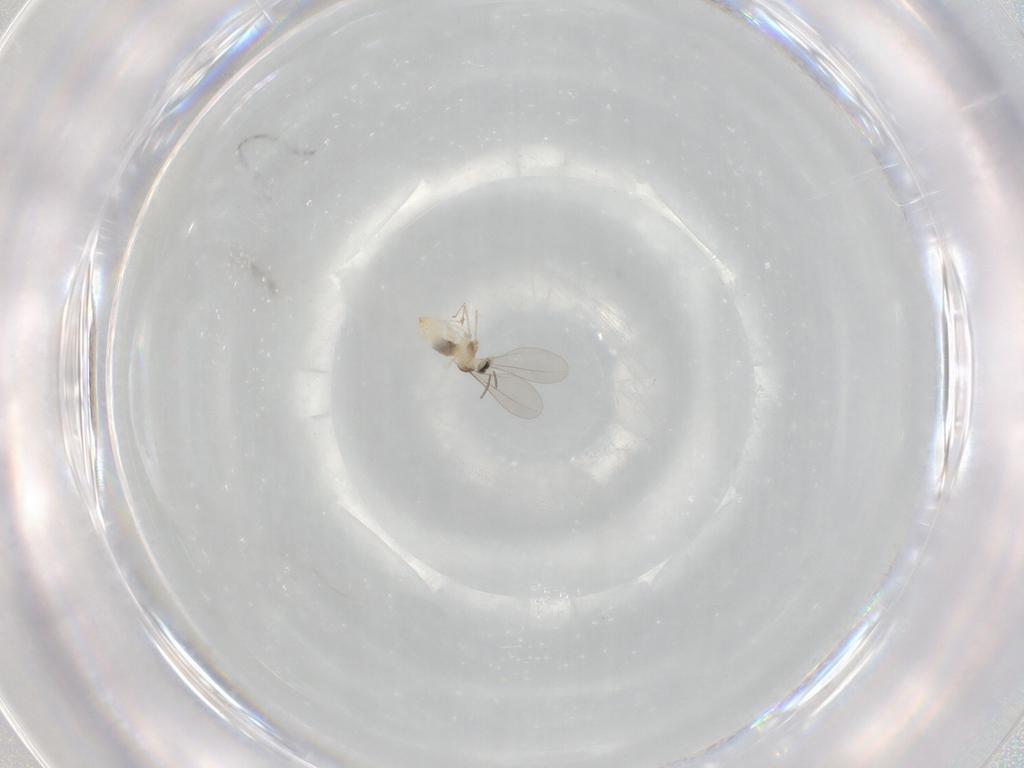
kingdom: Animalia
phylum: Arthropoda
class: Insecta
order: Diptera
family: Cecidomyiidae
